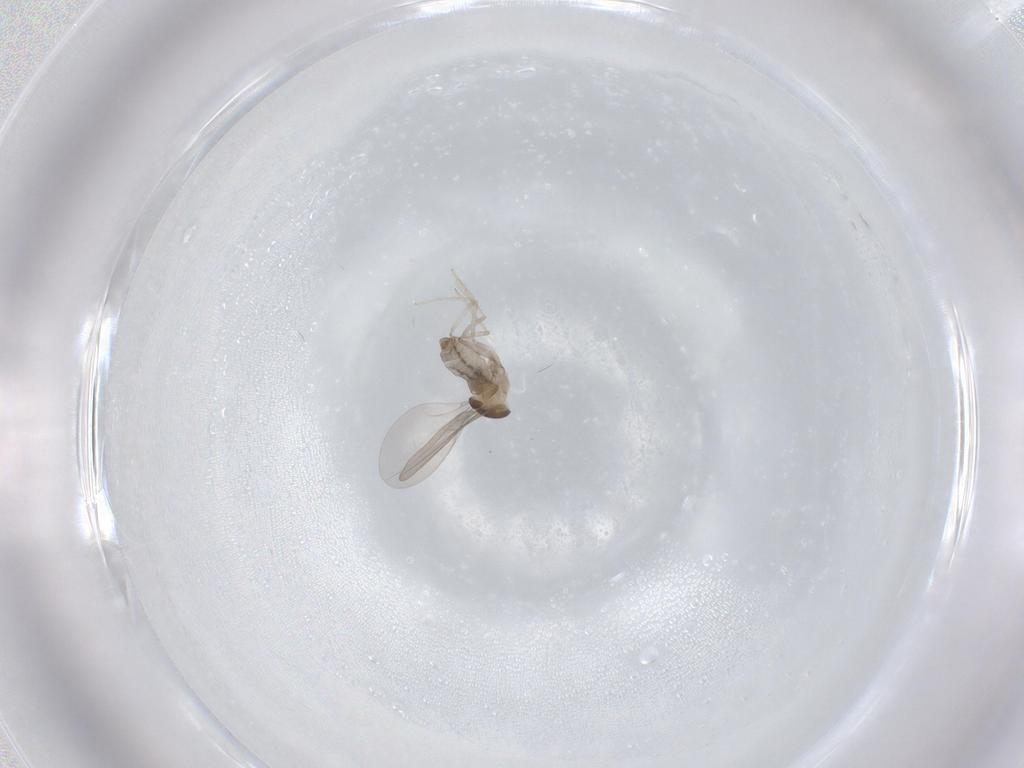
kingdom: Animalia
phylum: Arthropoda
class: Insecta
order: Diptera
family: Cecidomyiidae
